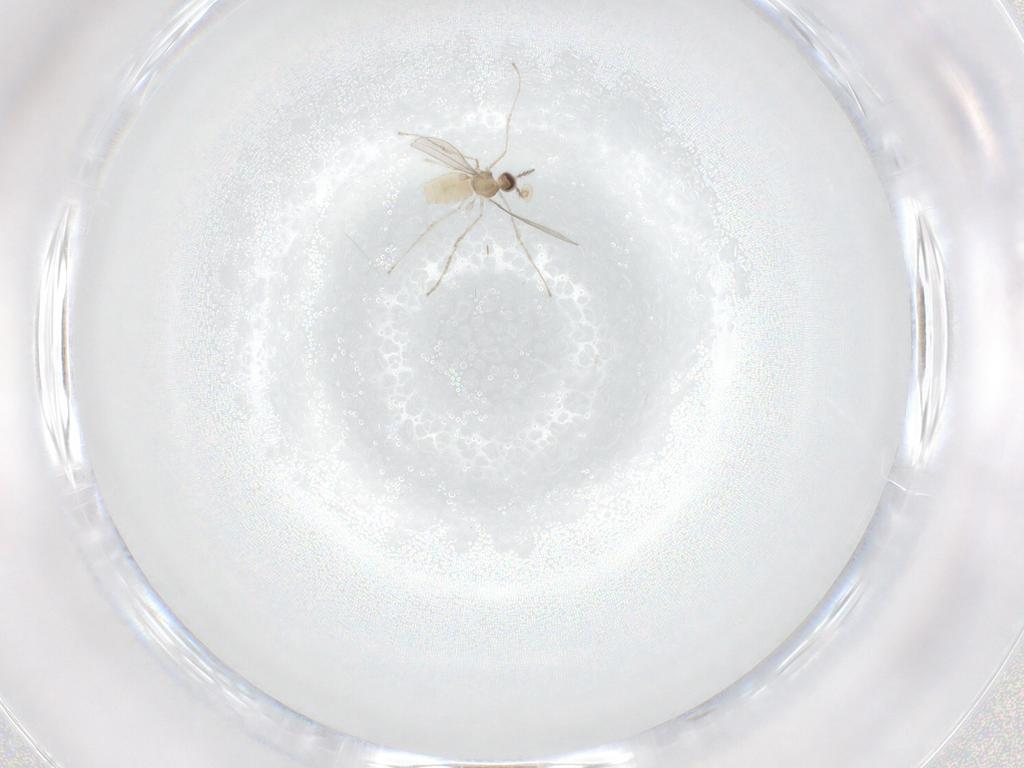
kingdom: Animalia
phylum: Arthropoda
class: Insecta
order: Diptera
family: Cecidomyiidae
